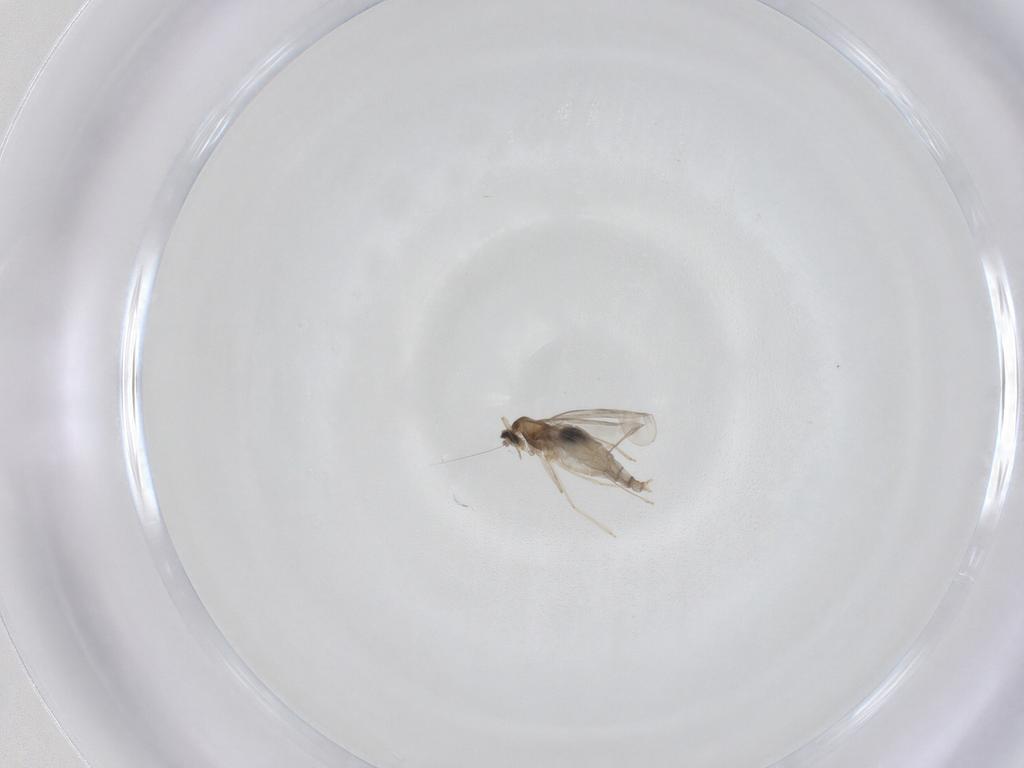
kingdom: Animalia
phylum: Arthropoda
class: Insecta
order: Diptera
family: Cecidomyiidae
